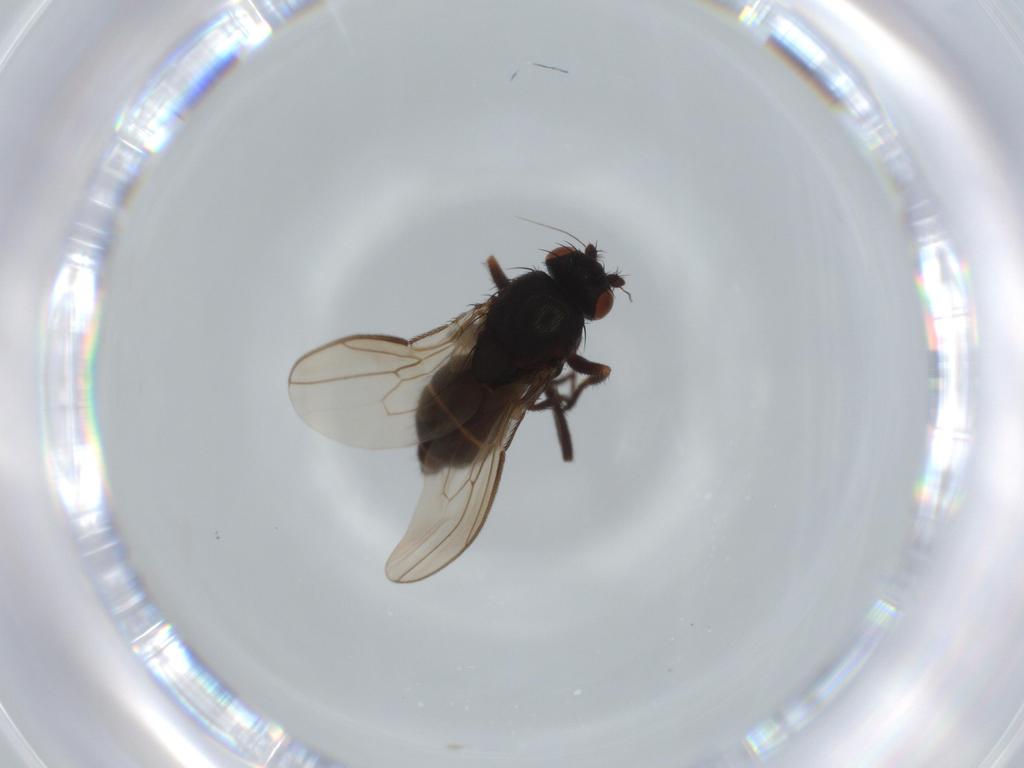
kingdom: Animalia
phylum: Arthropoda
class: Insecta
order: Diptera
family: Sphaeroceridae
